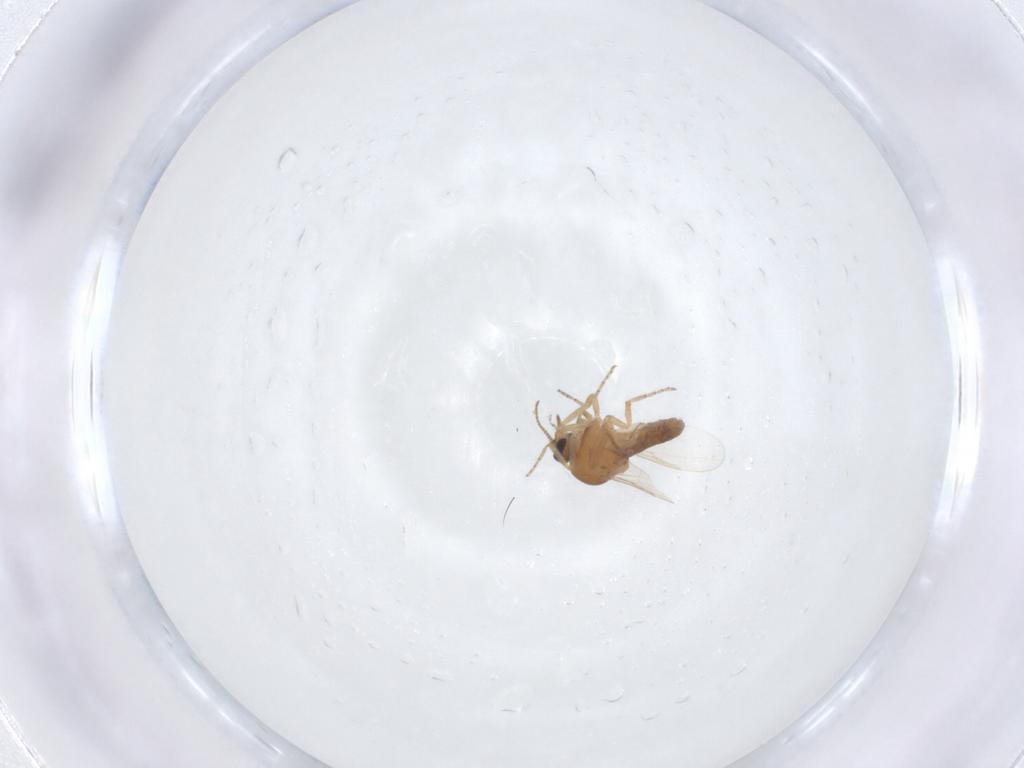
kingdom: Animalia
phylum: Arthropoda
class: Insecta
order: Diptera
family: Ceratopogonidae
